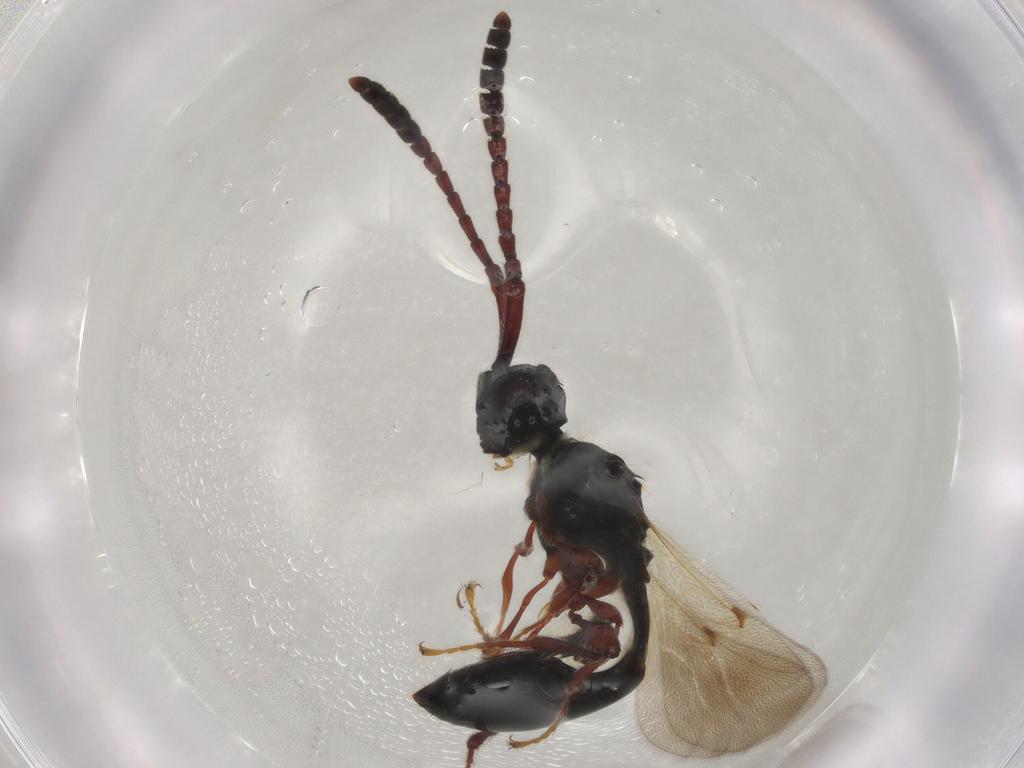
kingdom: Animalia
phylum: Arthropoda
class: Insecta
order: Hymenoptera
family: Diapriidae
